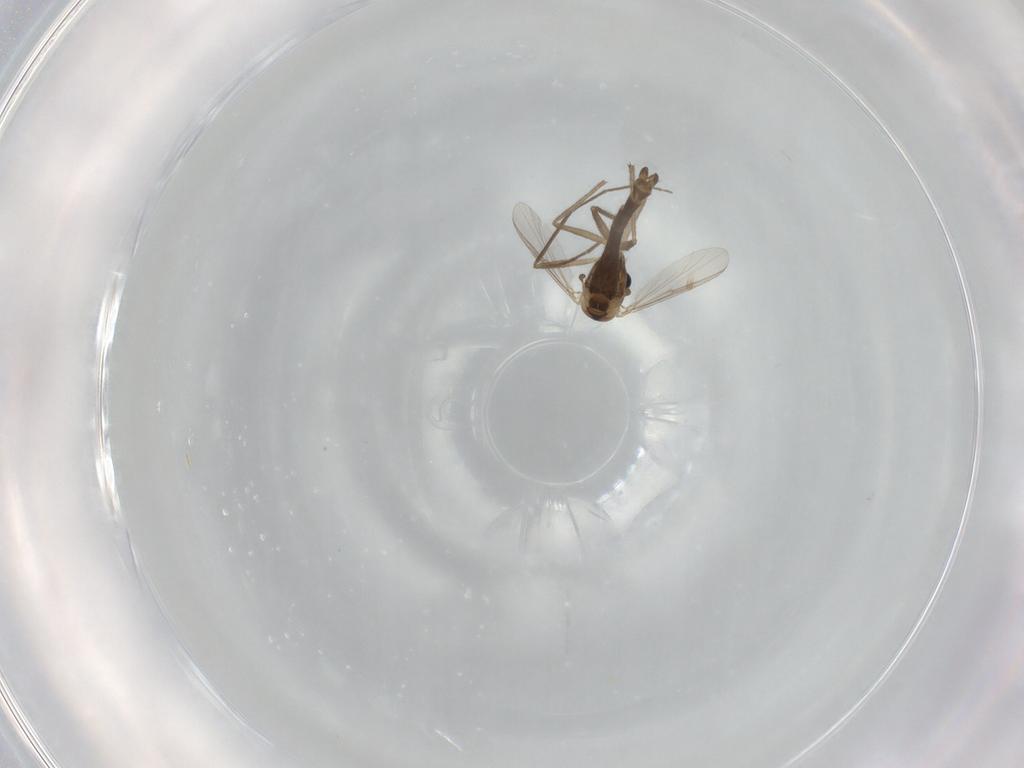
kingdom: Animalia
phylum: Arthropoda
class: Insecta
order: Diptera
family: Chironomidae
